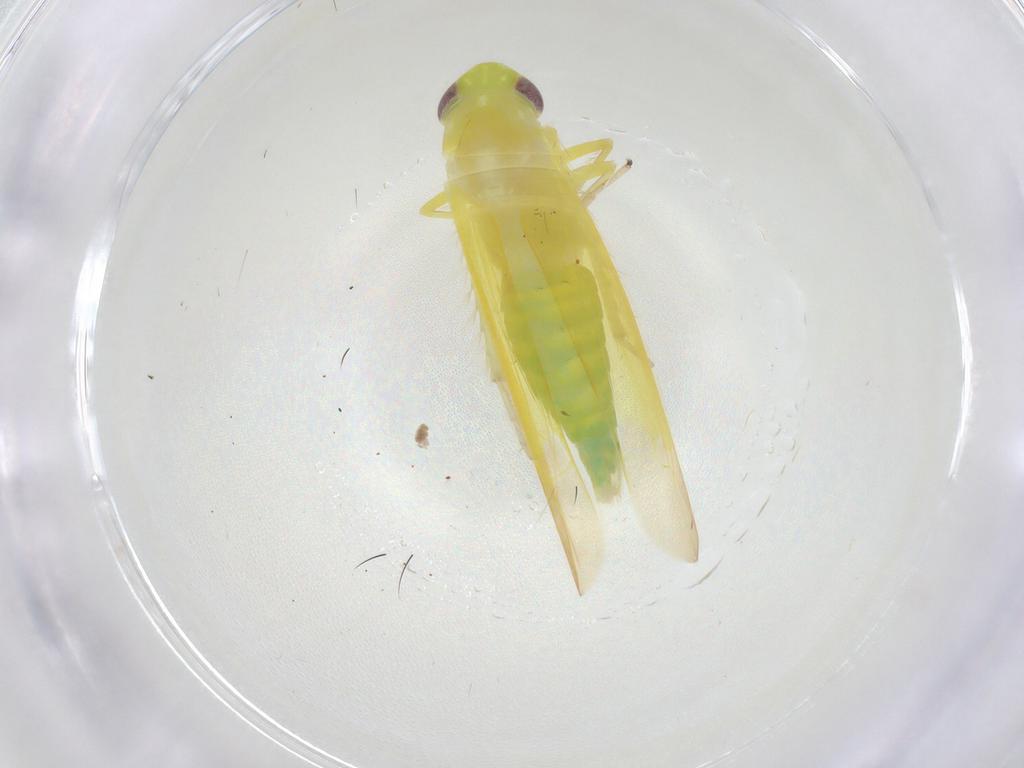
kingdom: Animalia
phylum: Arthropoda
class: Insecta
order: Hemiptera
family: Cicadellidae
